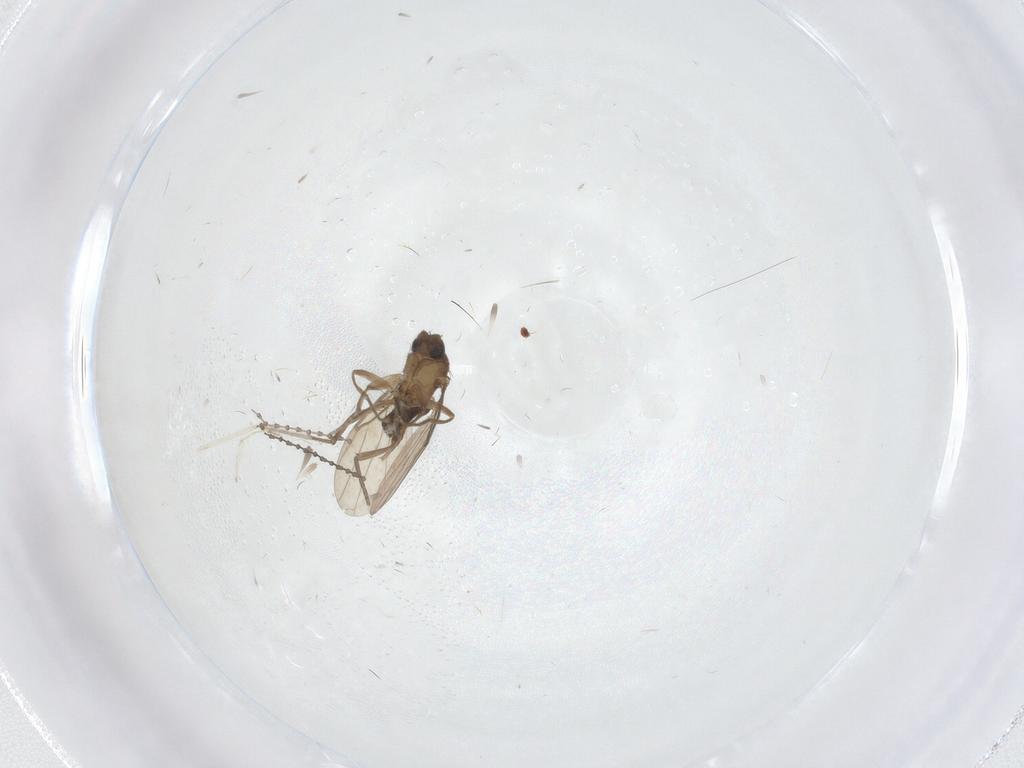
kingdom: Animalia
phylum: Arthropoda
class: Insecta
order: Diptera
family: Phoridae
